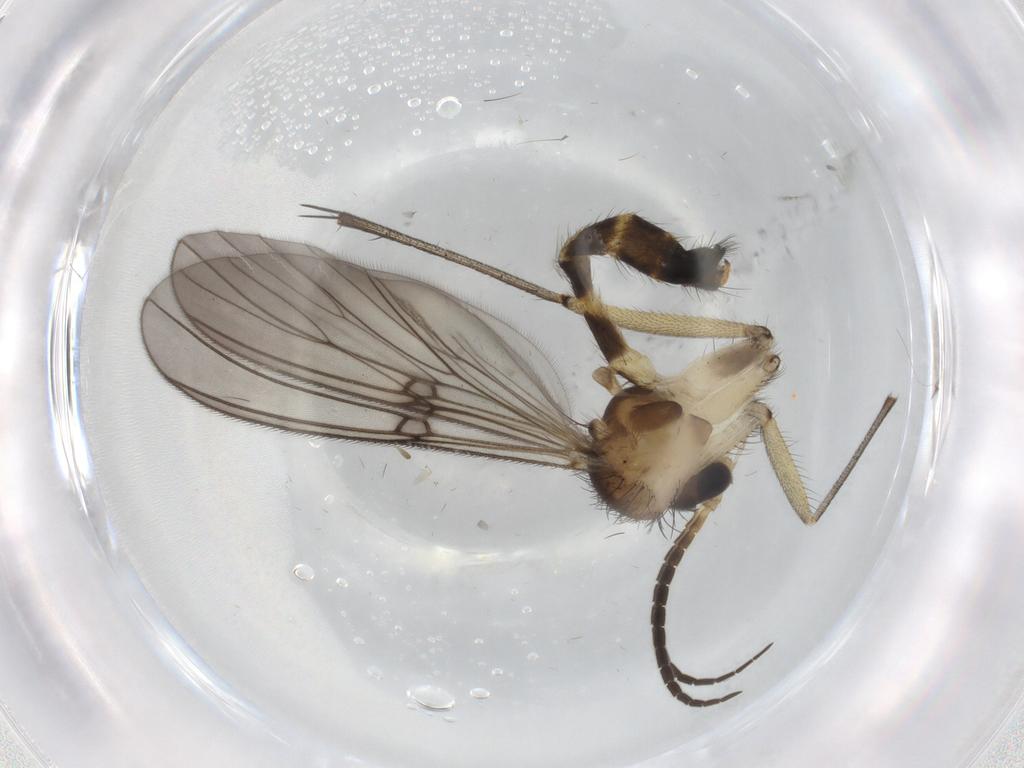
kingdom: Animalia
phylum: Arthropoda
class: Insecta
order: Diptera
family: Mycetophilidae
